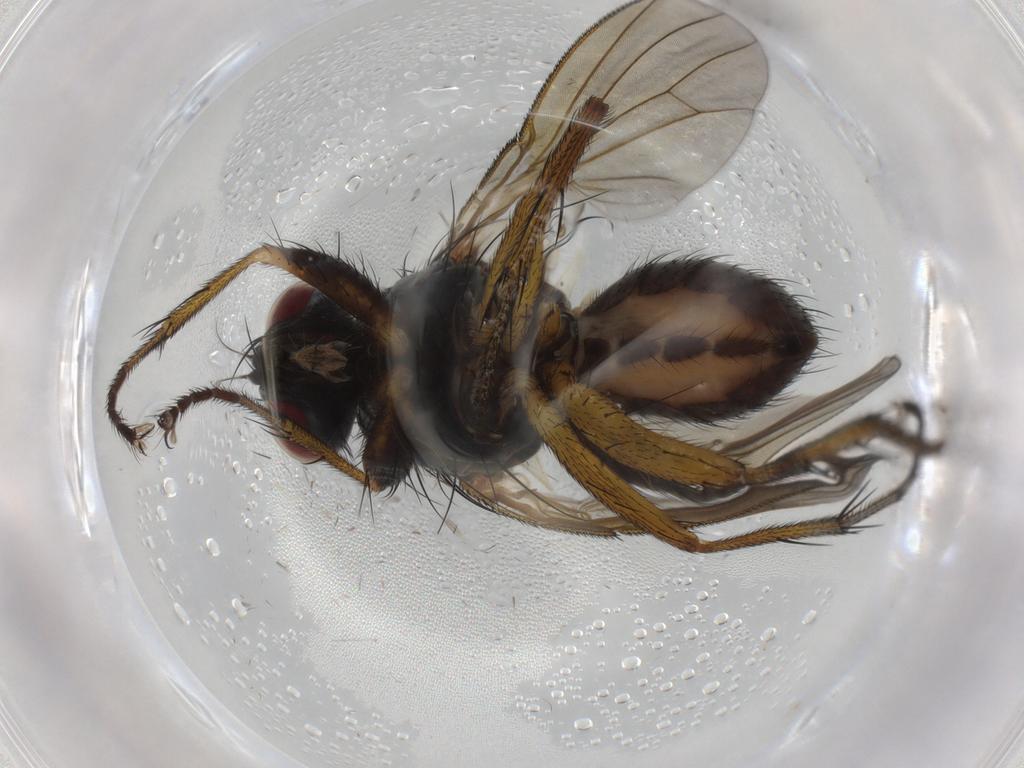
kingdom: Animalia
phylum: Arthropoda
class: Insecta
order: Diptera
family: Muscidae
